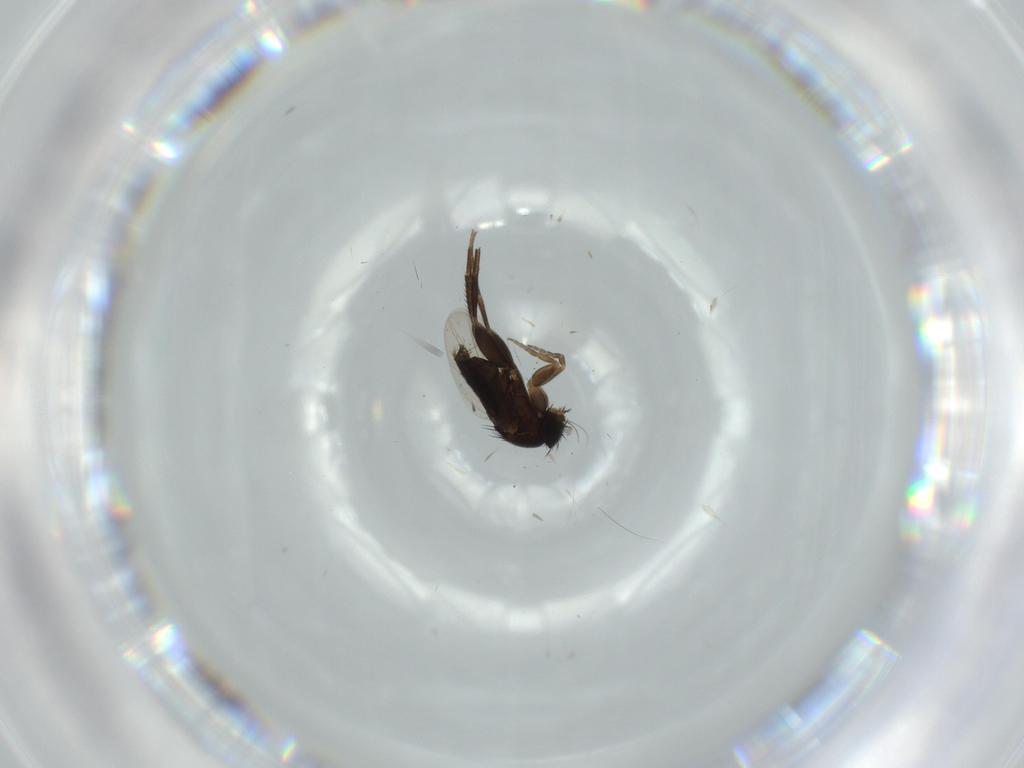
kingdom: Animalia
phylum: Arthropoda
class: Insecta
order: Diptera
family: Phoridae
